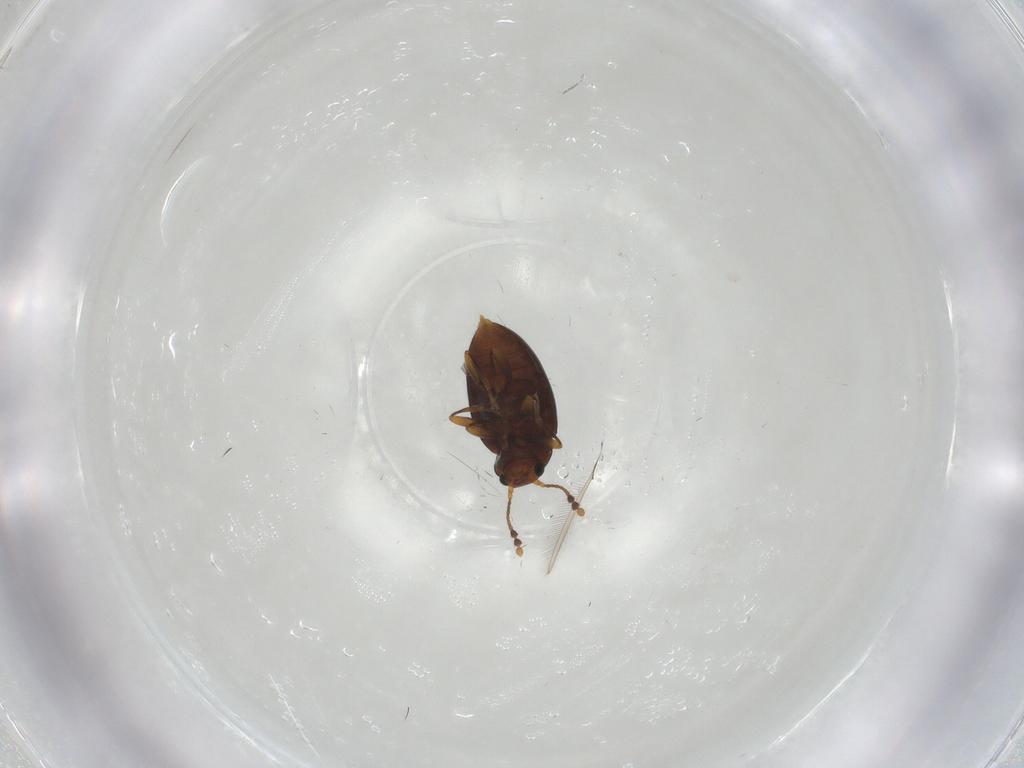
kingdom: Animalia
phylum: Arthropoda
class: Insecta
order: Coleoptera
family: Erotylidae
